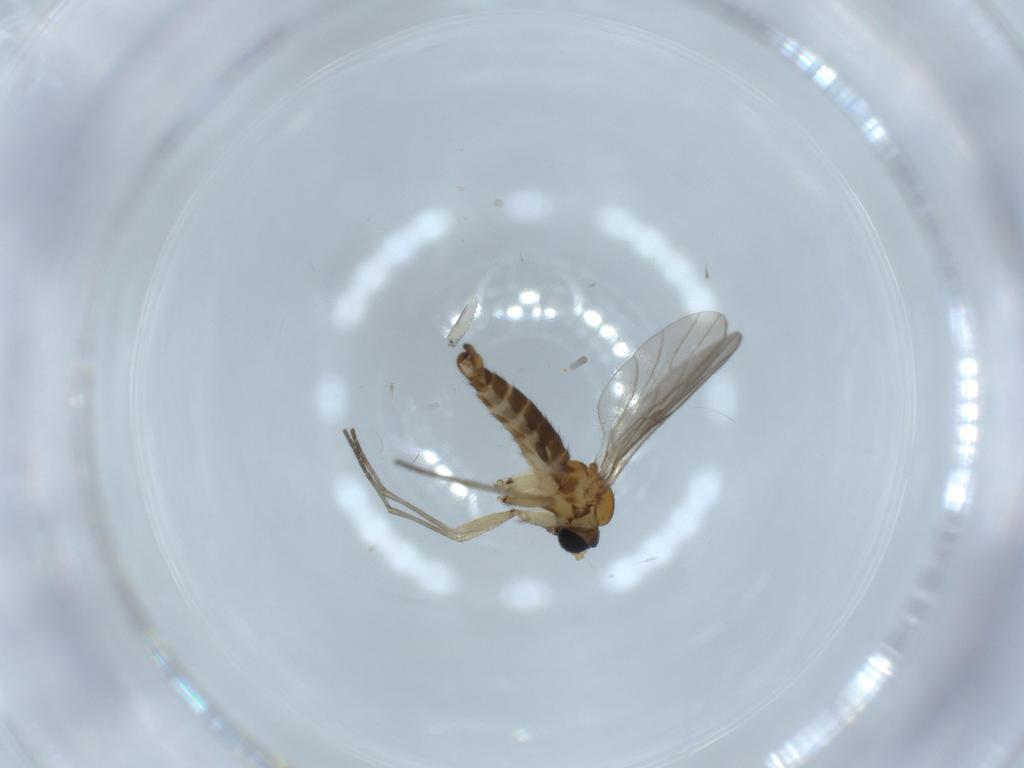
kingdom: Animalia
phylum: Arthropoda
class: Insecta
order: Diptera
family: Sciaridae
